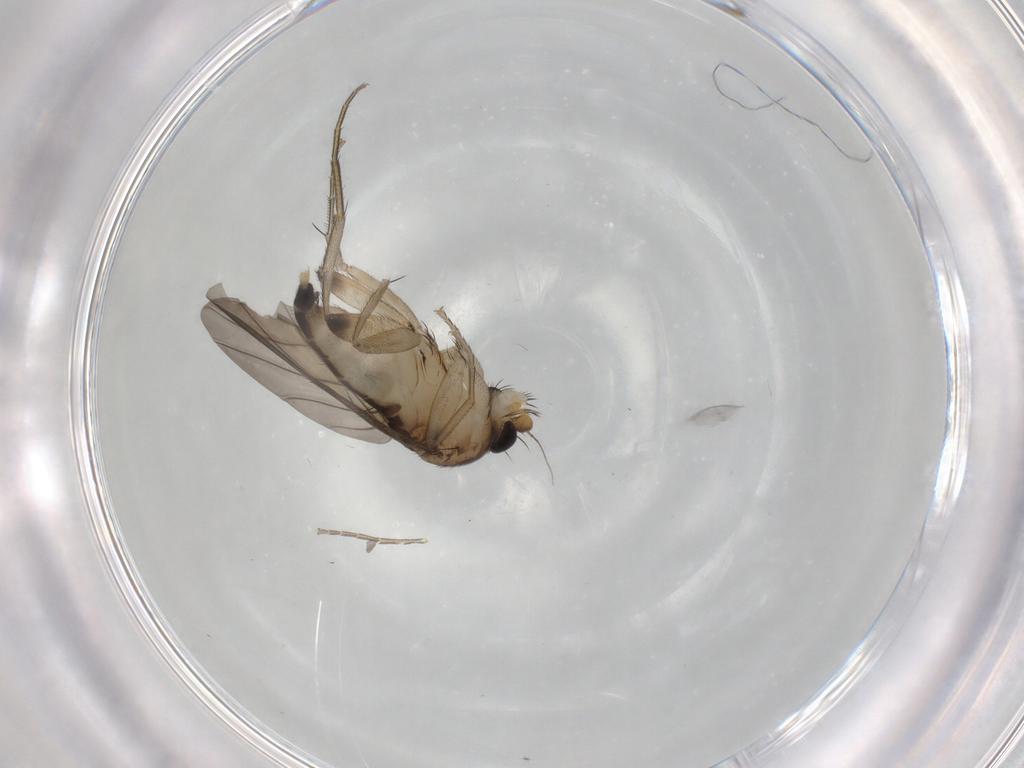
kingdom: Animalia
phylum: Arthropoda
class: Insecta
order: Diptera
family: Phoridae
